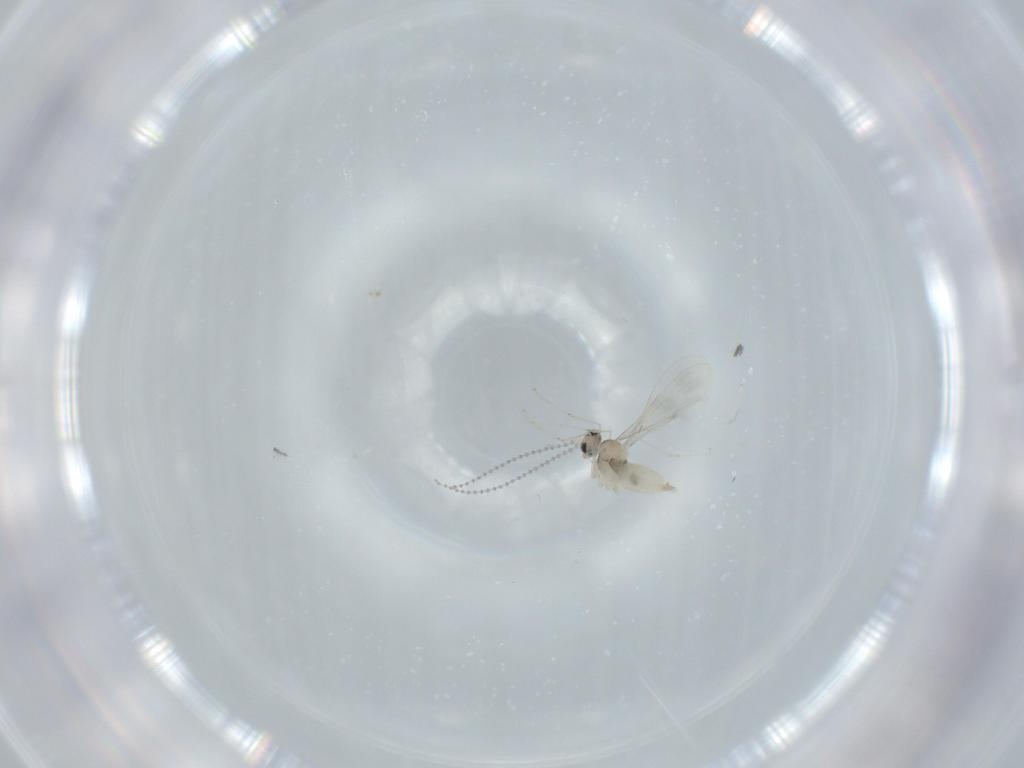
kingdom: Animalia
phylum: Arthropoda
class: Insecta
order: Diptera
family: Cecidomyiidae
